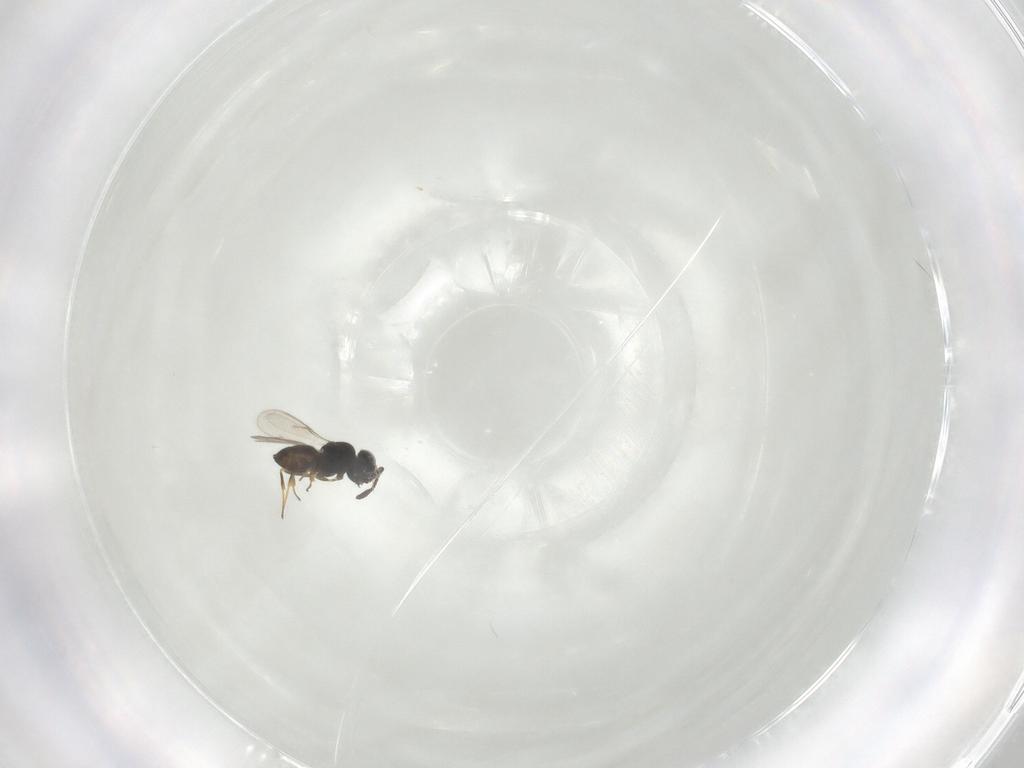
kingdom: Animalia
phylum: Arthropoda
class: Insecta
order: Hymenoptera
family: Scelionidae
